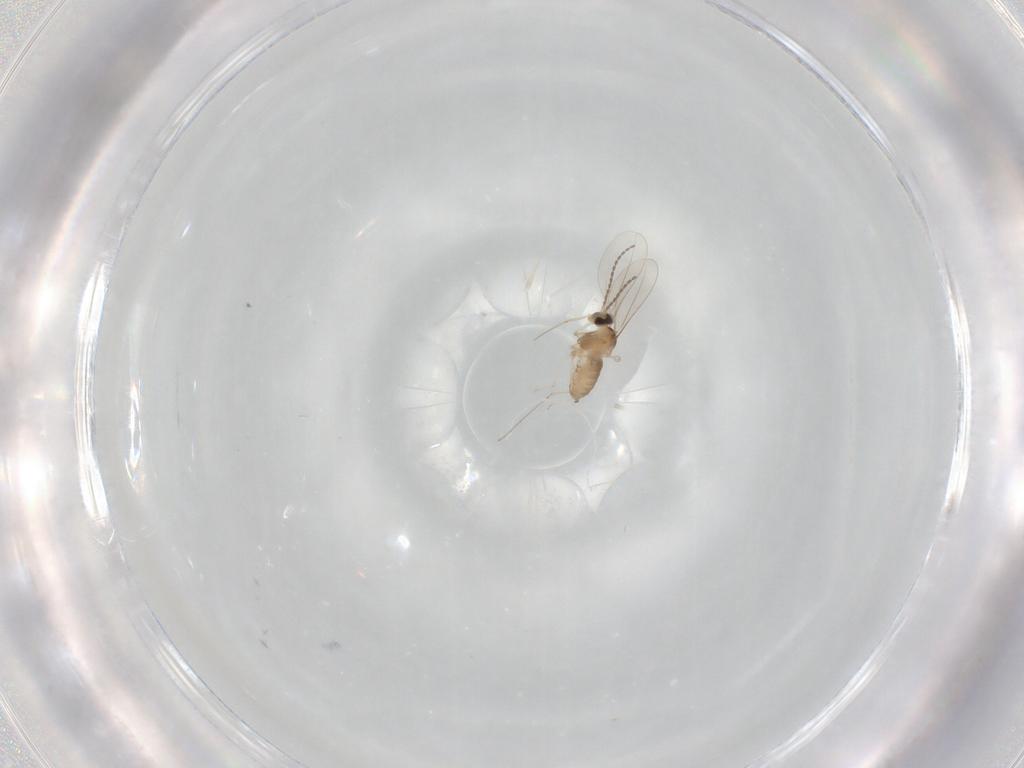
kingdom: Animalia
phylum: Arthropoda
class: Insecta
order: Diptera
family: Cecidomyiidae
